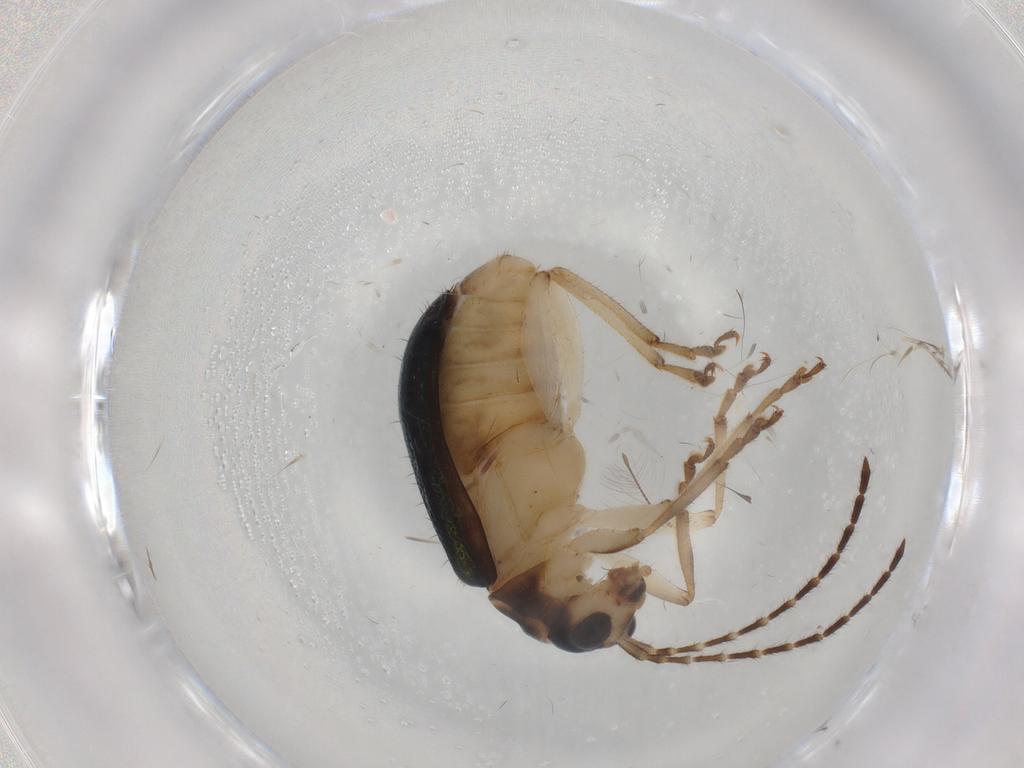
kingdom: Animalia
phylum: Arthropoda
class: Insecta
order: Coleoptera
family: Chrysomelidae
